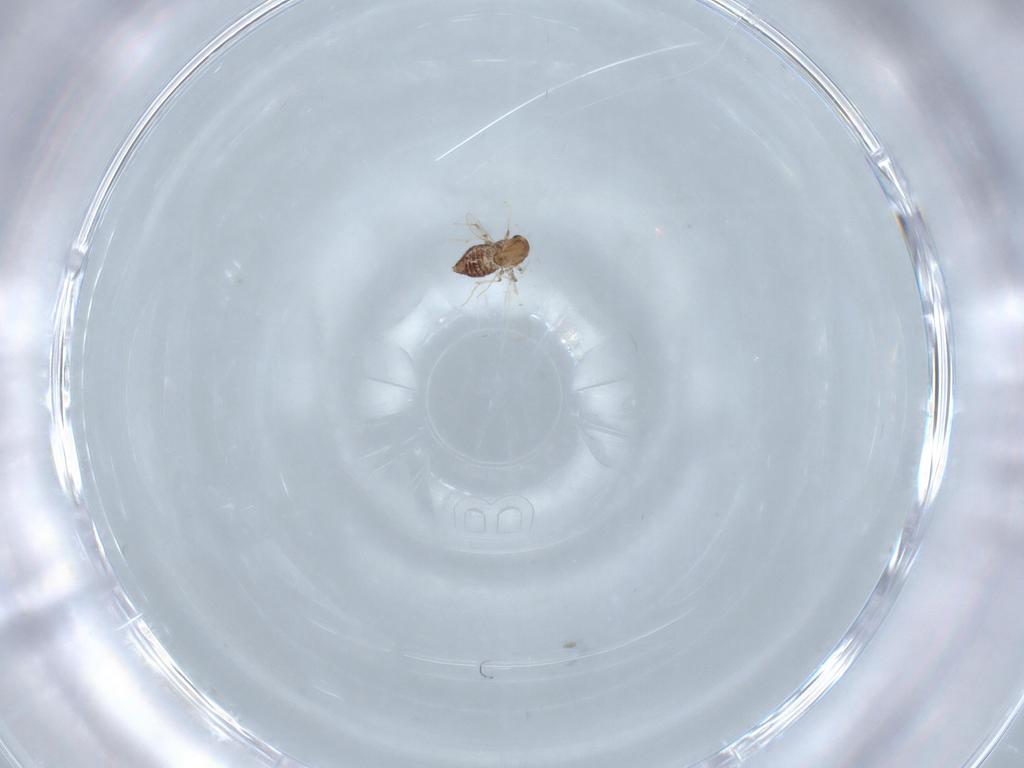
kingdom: Animalia
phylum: Arthropoda
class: Insecta
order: Diptera
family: Chironomidae
